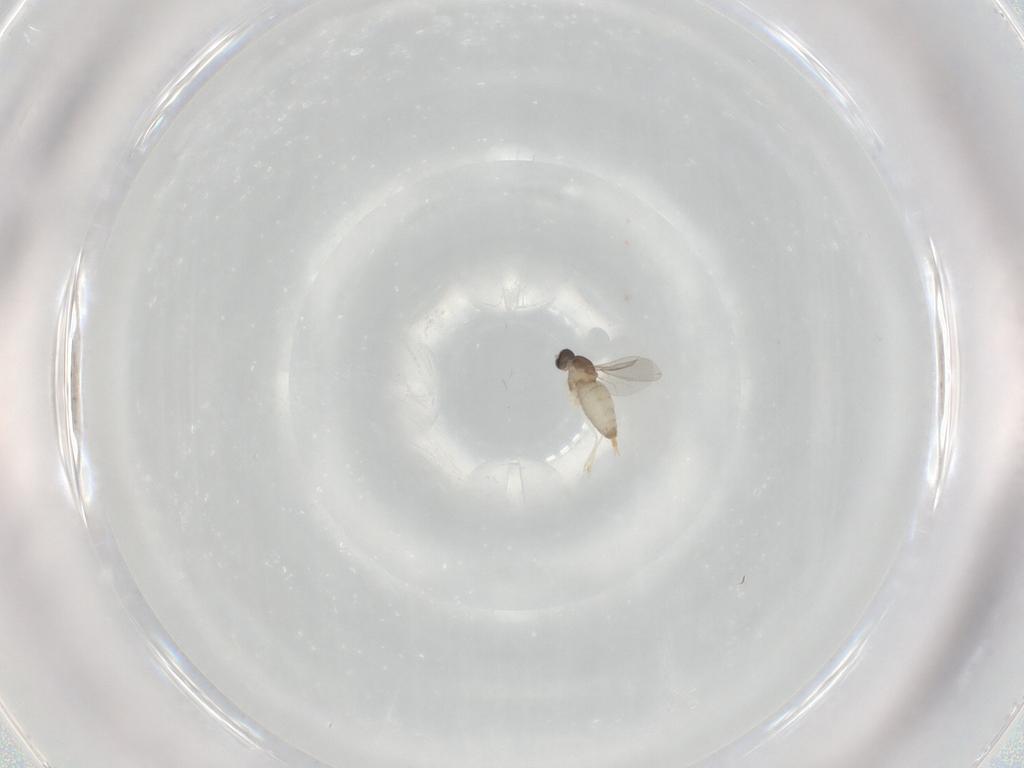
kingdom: Animalia
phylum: Arthropoda
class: Insecta
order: Diptera
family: Cecidomyiidae
